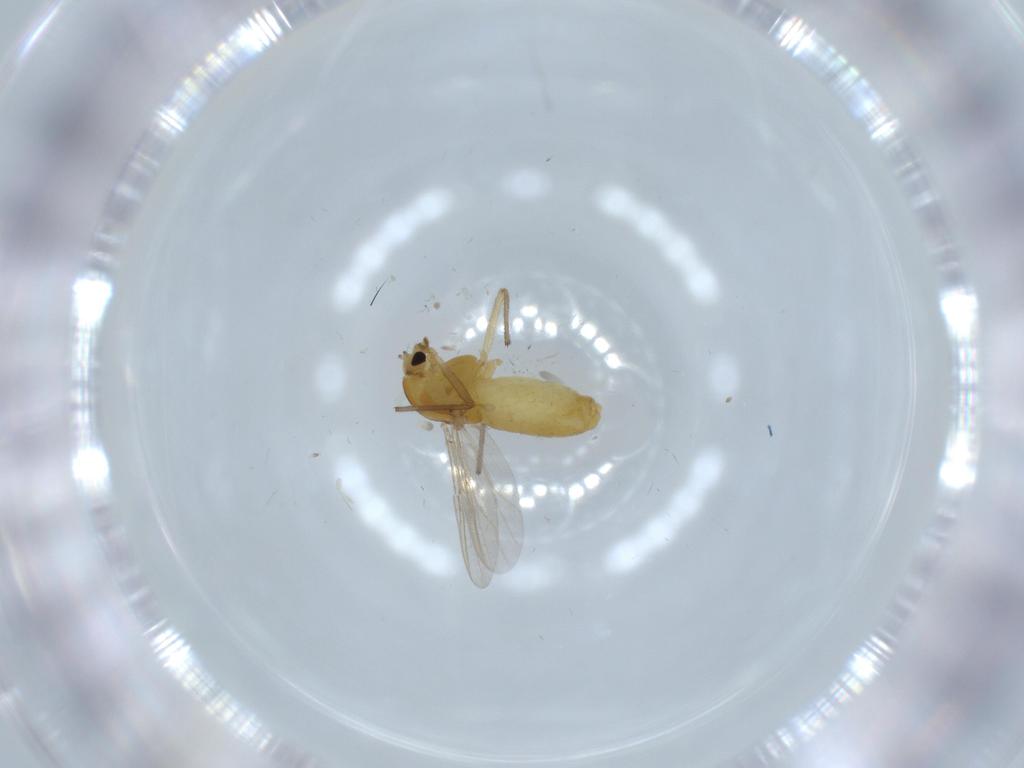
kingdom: Animalia
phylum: Arthropoda
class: Insecta
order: Diptera
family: Chironomidae
